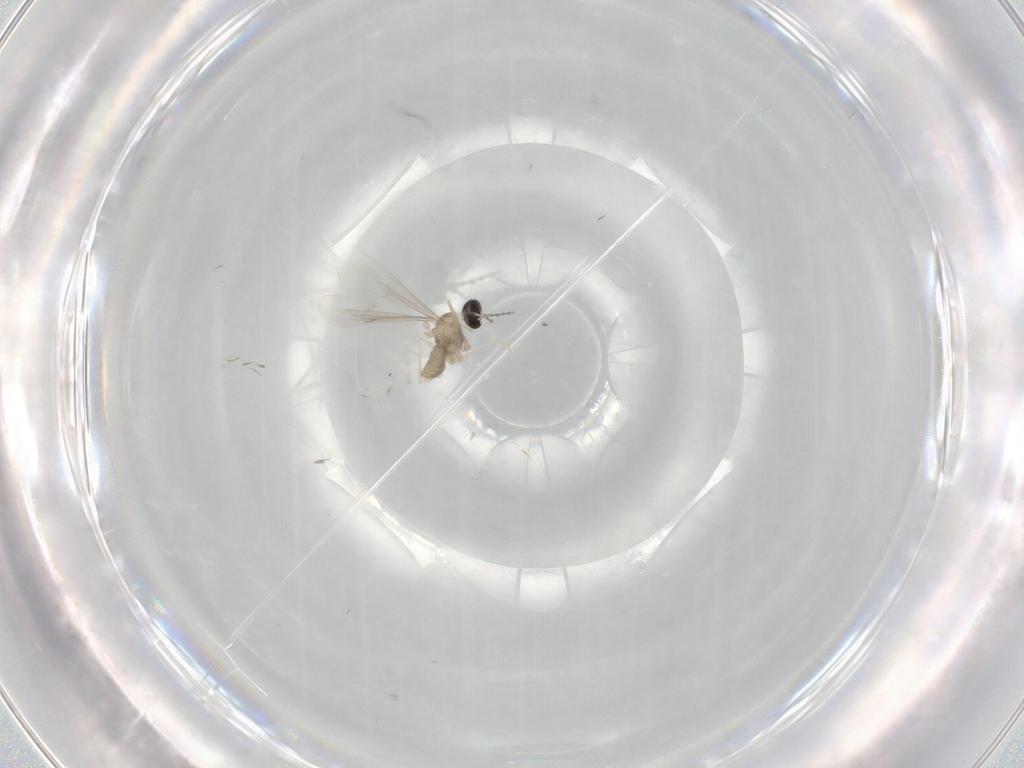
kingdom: Animalia
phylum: Arthropoda
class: Insecta
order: Diptera
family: Cecidomyiidae
